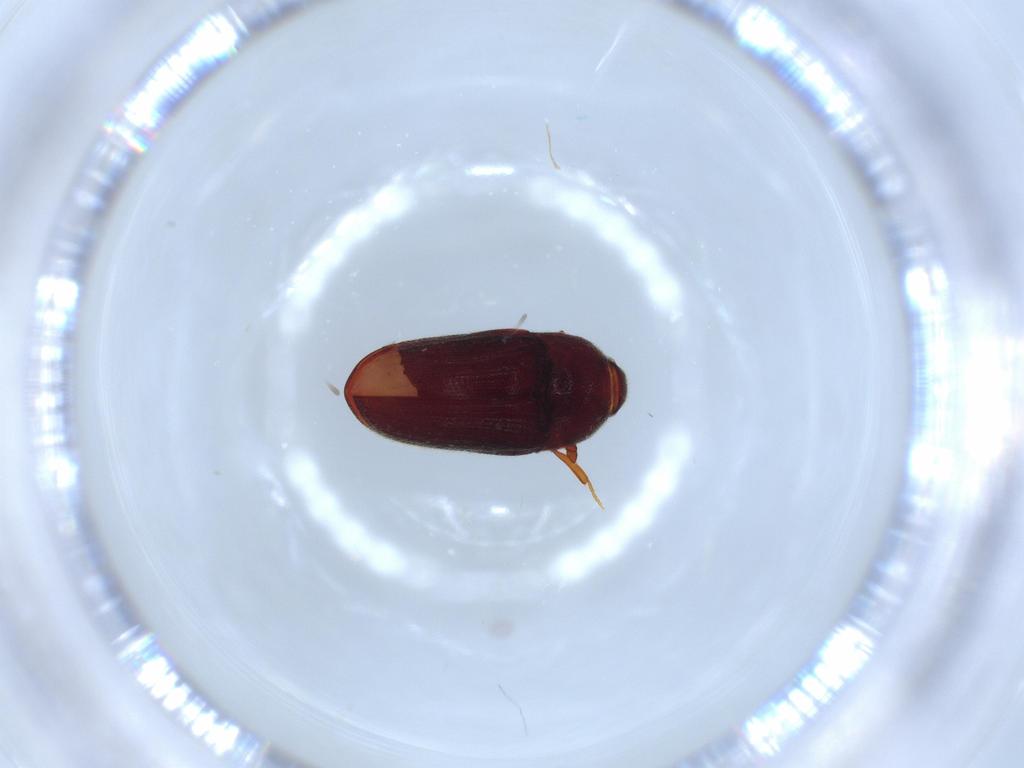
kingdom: Animalia
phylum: Arthropoda
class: Insecta
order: Coleoptera
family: Throscidae
